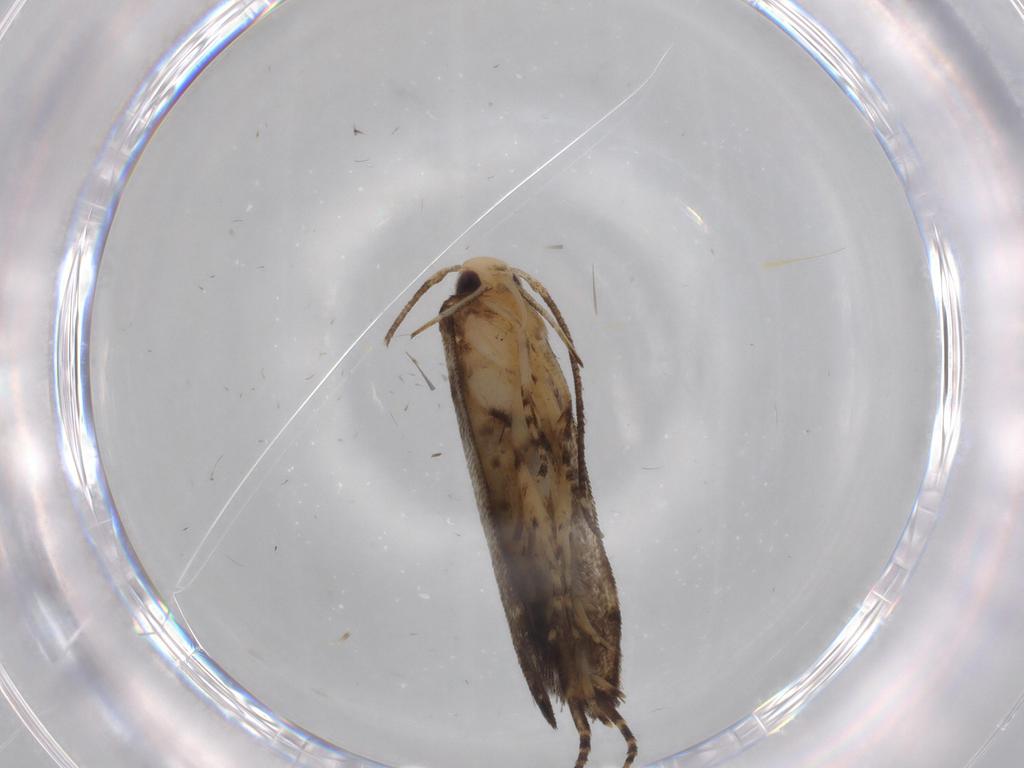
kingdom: Animalia
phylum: Arthropoda
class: Insecta
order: Lepidoptera
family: Cosmopterigidae
